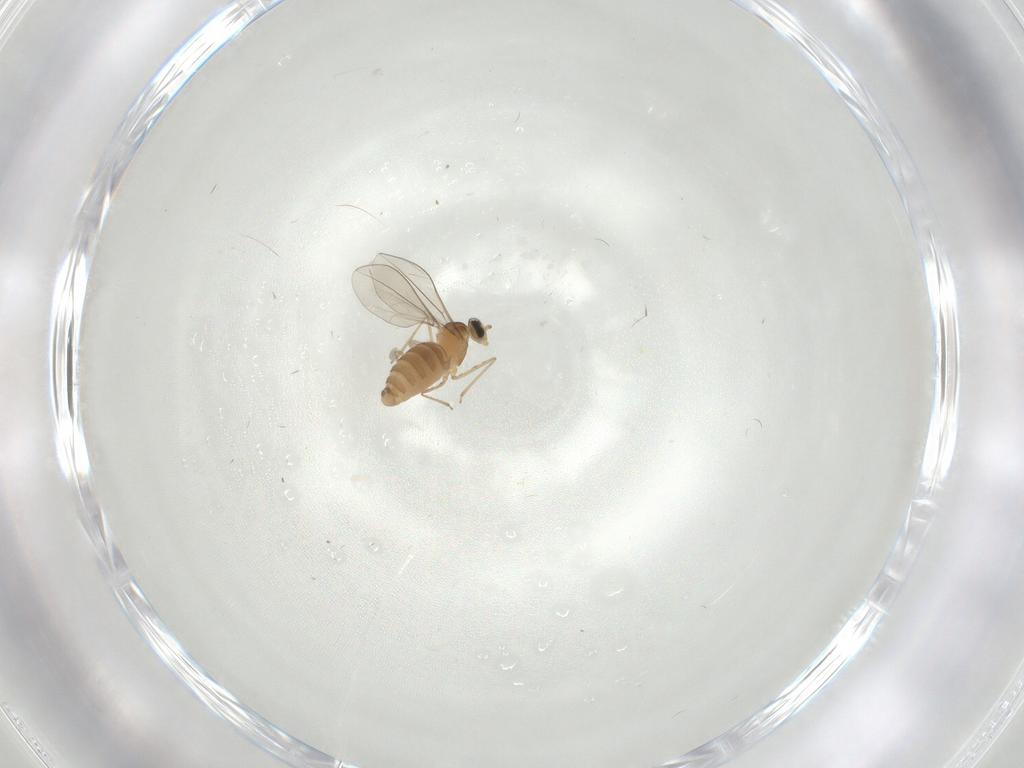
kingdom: Animalia
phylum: Arthropoda
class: Insecta
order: Diptera
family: Cecidomyiidae
